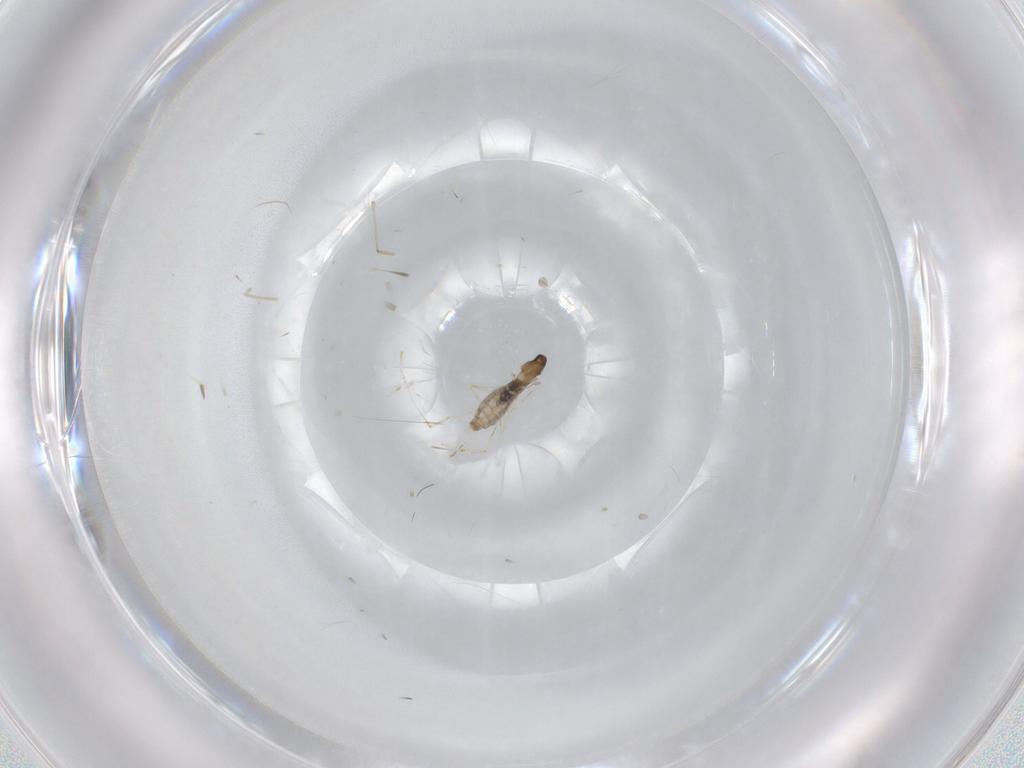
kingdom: Animalia
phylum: Arthropoda
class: Insecta
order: Diptera
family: Cecidomyiidae
